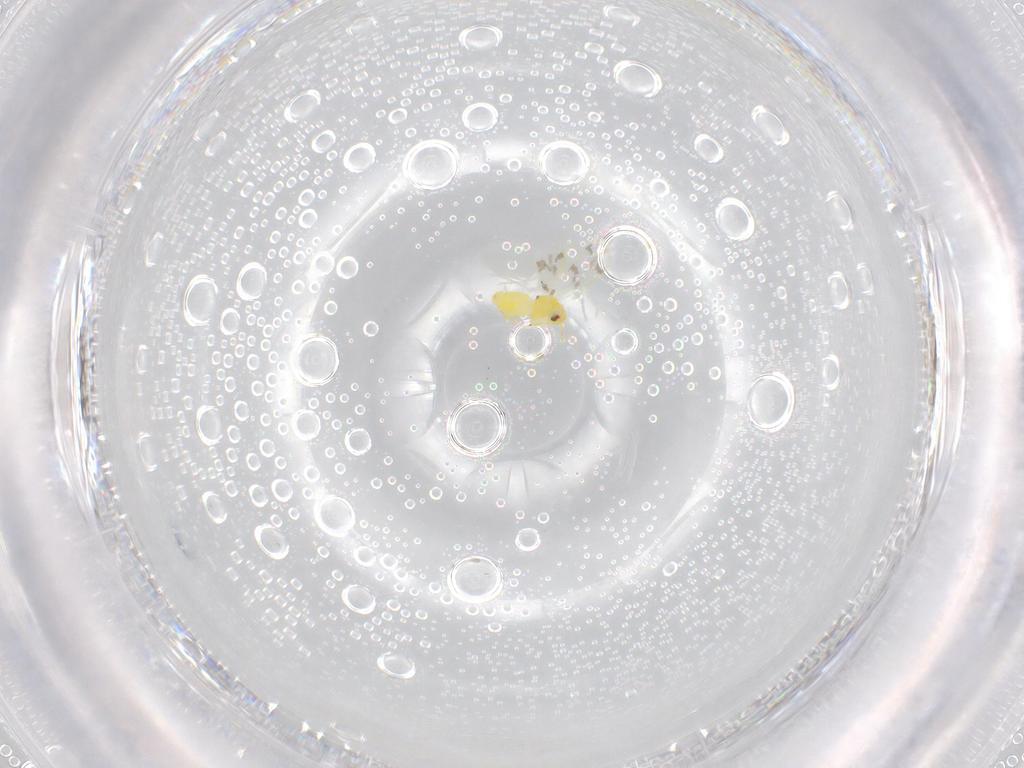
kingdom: Animalia
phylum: Arthropoda
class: Insecta
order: Hemiptera
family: Aleyrodidae
